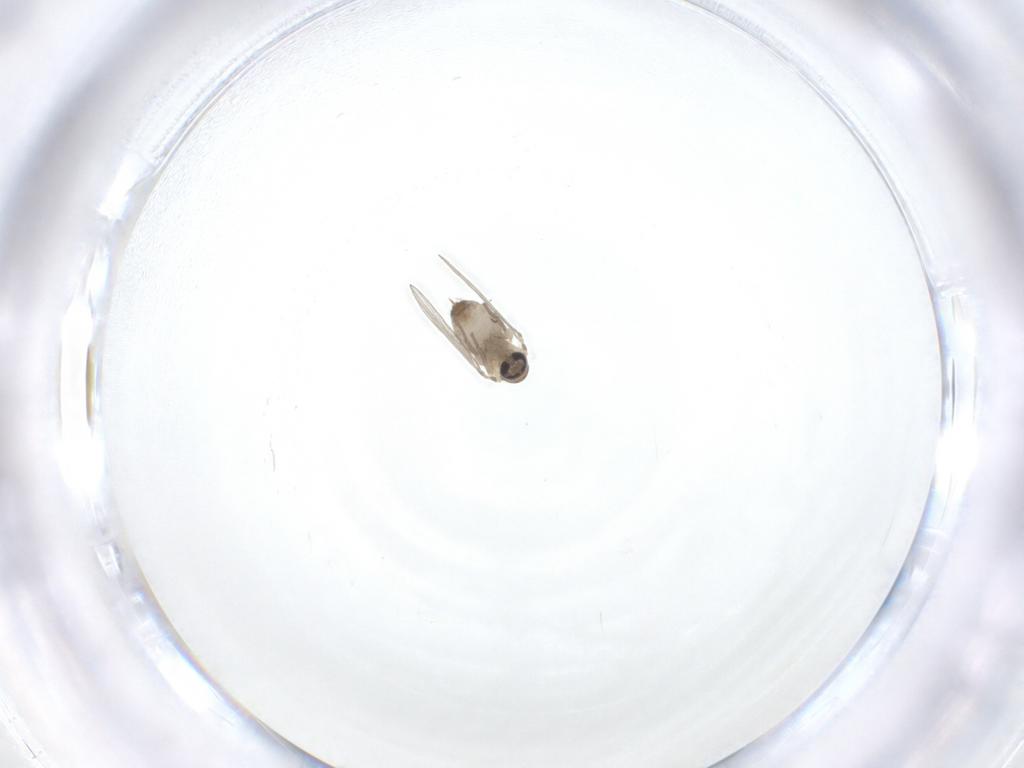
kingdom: Animalia
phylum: Arthropoda
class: Insecta
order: Diptera
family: Psychodidae
